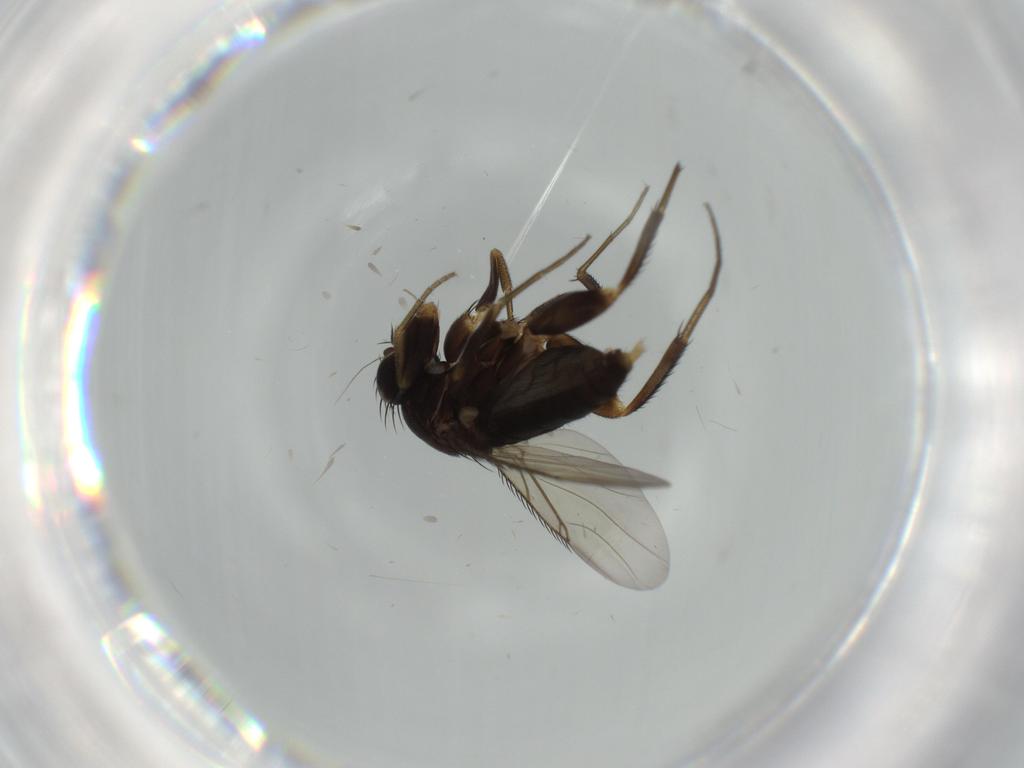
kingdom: Animalia
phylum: Arthropoda
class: Insecta
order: Diptera
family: Phoridae
